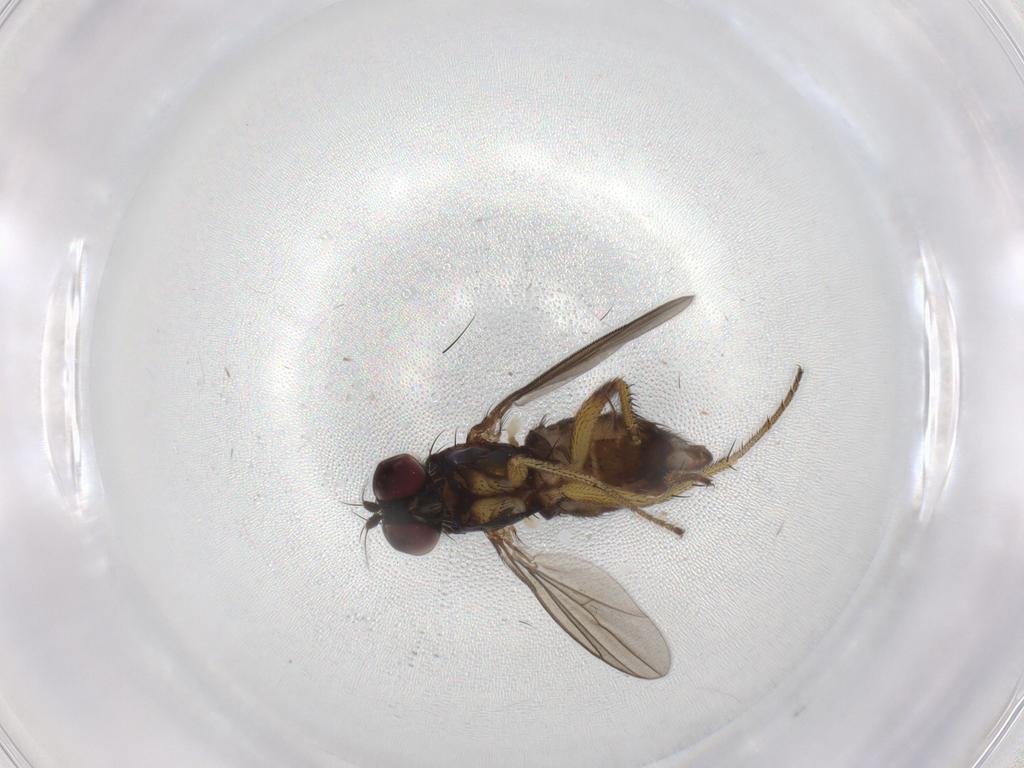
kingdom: Animalia
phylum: Arthropoda
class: Insecta
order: Diptera
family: Dolichopodidae
